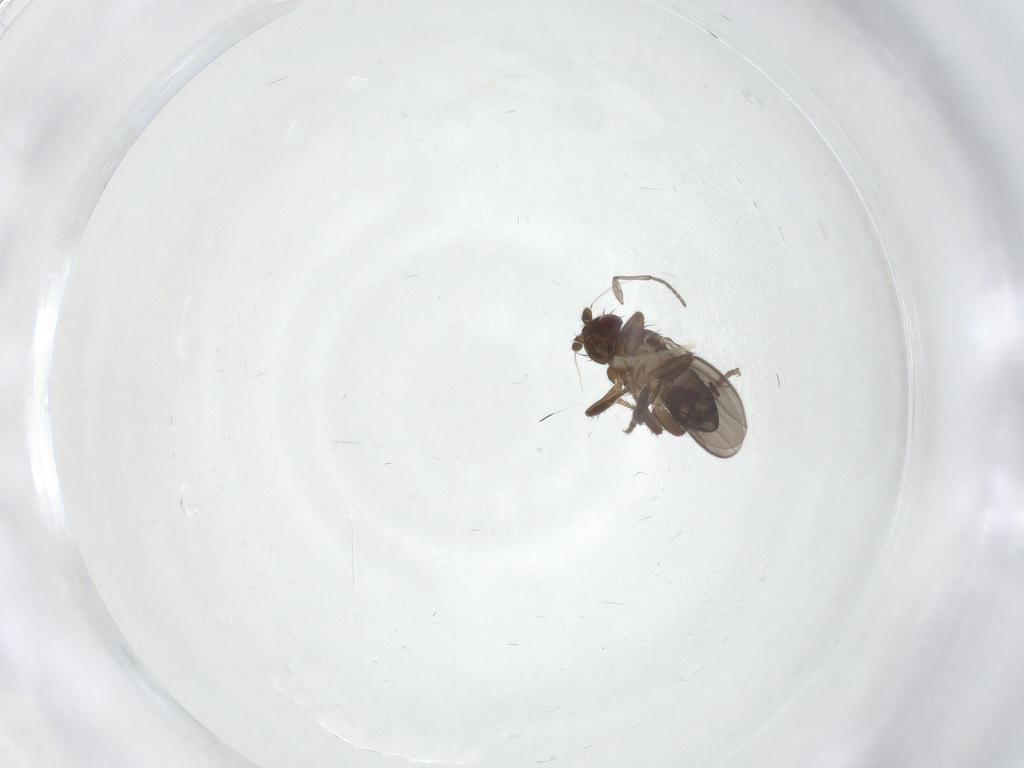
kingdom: Animalia
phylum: Arthropoda
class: Insecta
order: Diptera
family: Sciaridae
